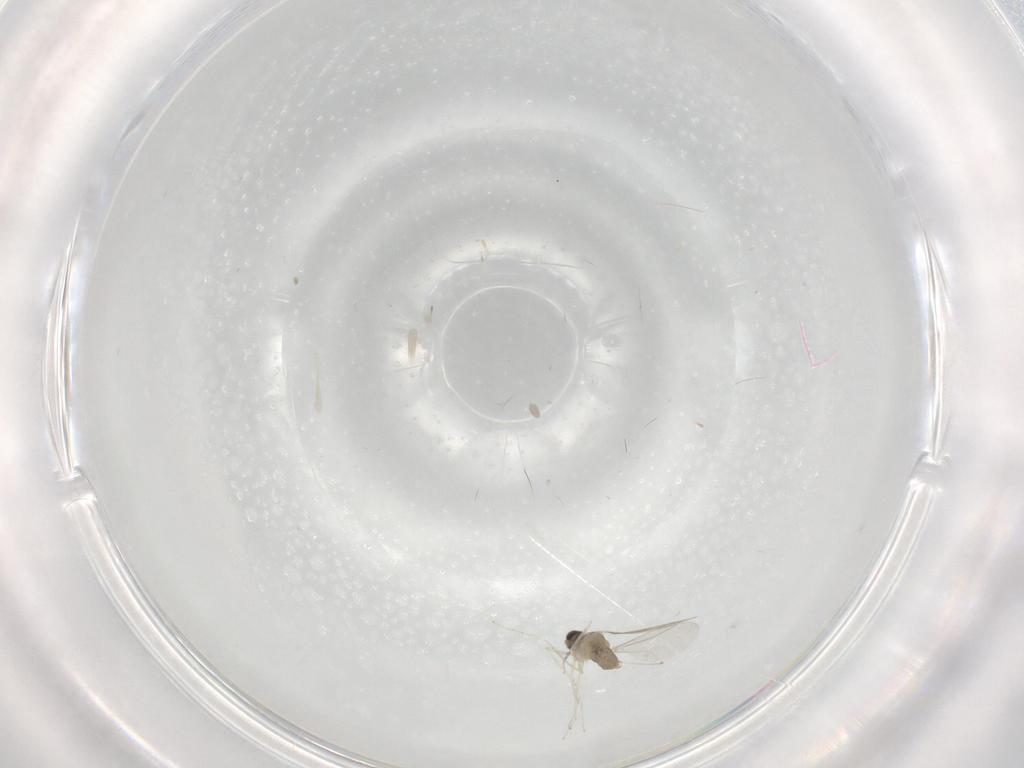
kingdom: Animalia
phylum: Arthropoda
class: Insecta
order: Diptera
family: Cecidomyiidae
